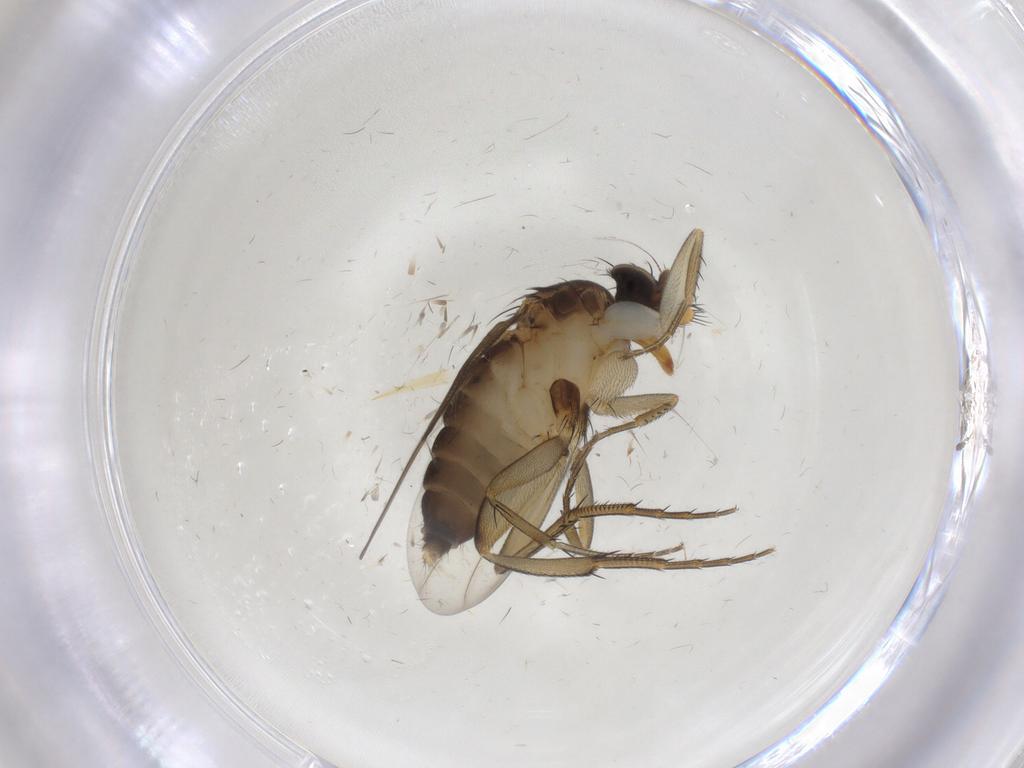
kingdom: Animalia
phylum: Arthropoda
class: Insecta
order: Diptera
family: Phoridae
